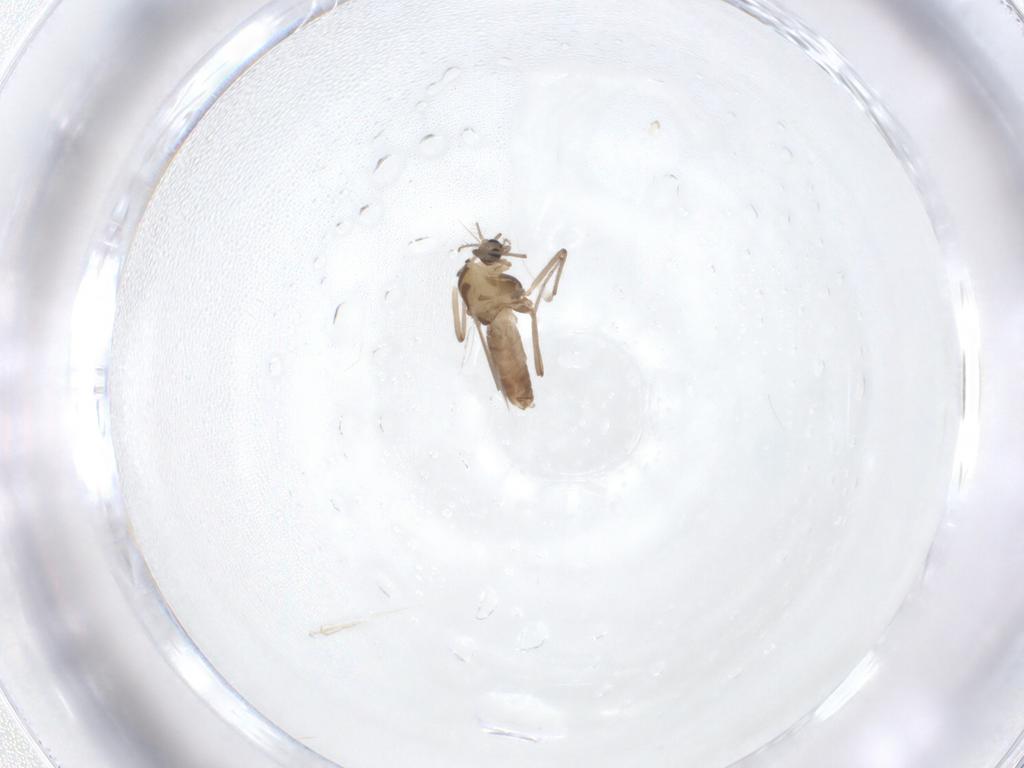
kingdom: Animalia
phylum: Arthropoda
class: Insecta
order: Diptera
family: Chironomidae
